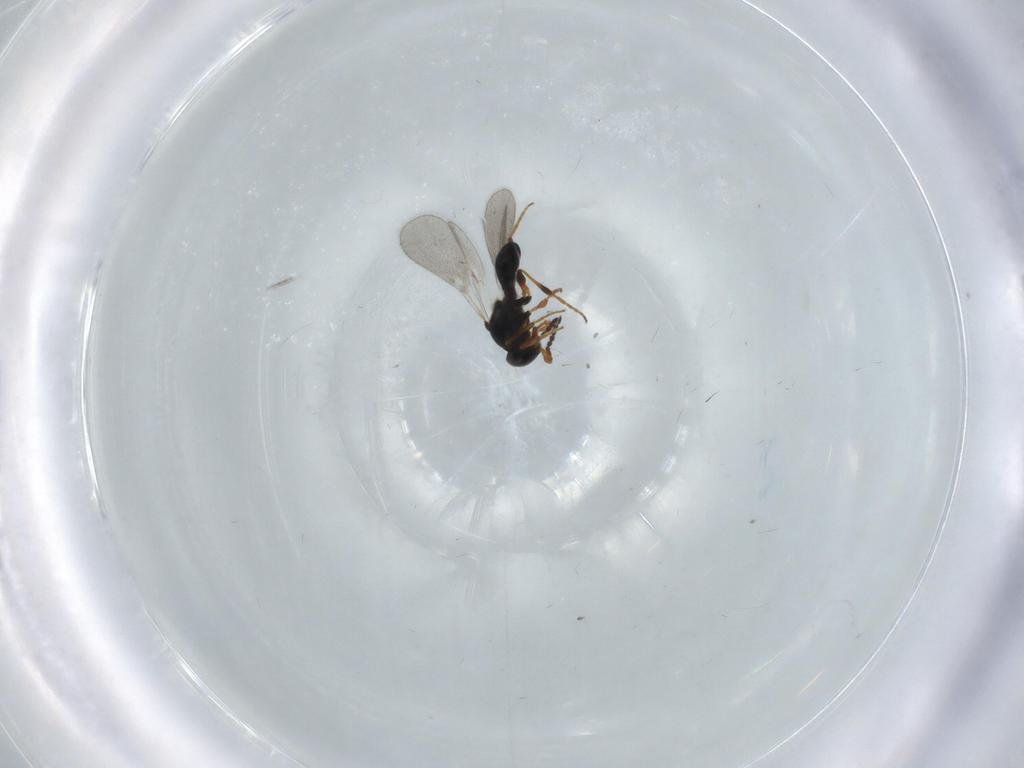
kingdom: Animalia
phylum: Arthropoda
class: Insecta
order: Hymenoptera
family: Platygastridae
